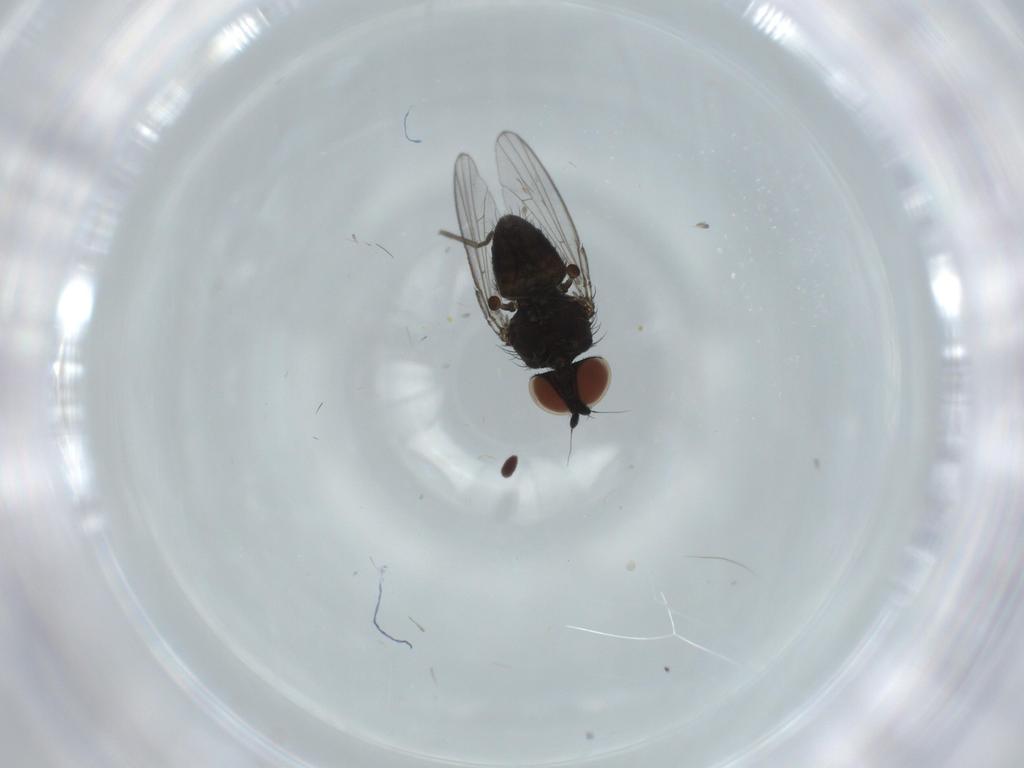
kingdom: Animalia
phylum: Arthropoda
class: Insecta
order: Diptera
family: Milichiidae
